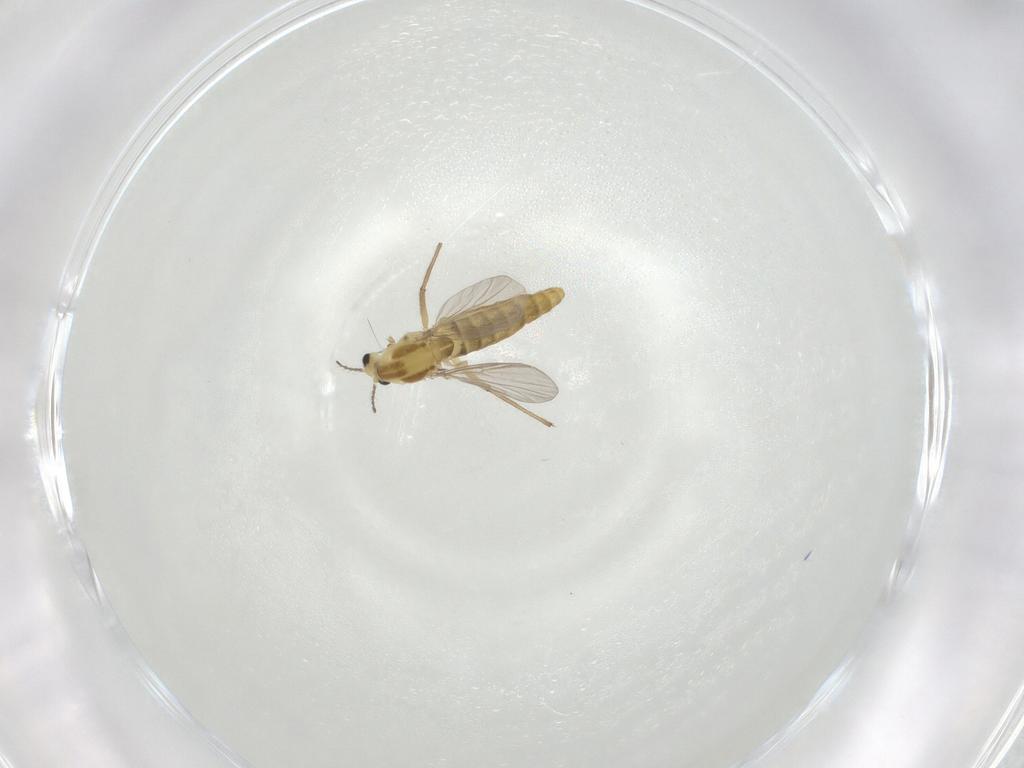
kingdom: Animalia
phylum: Arthropoda
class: Insecta
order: Diptera
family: Chironomidae
